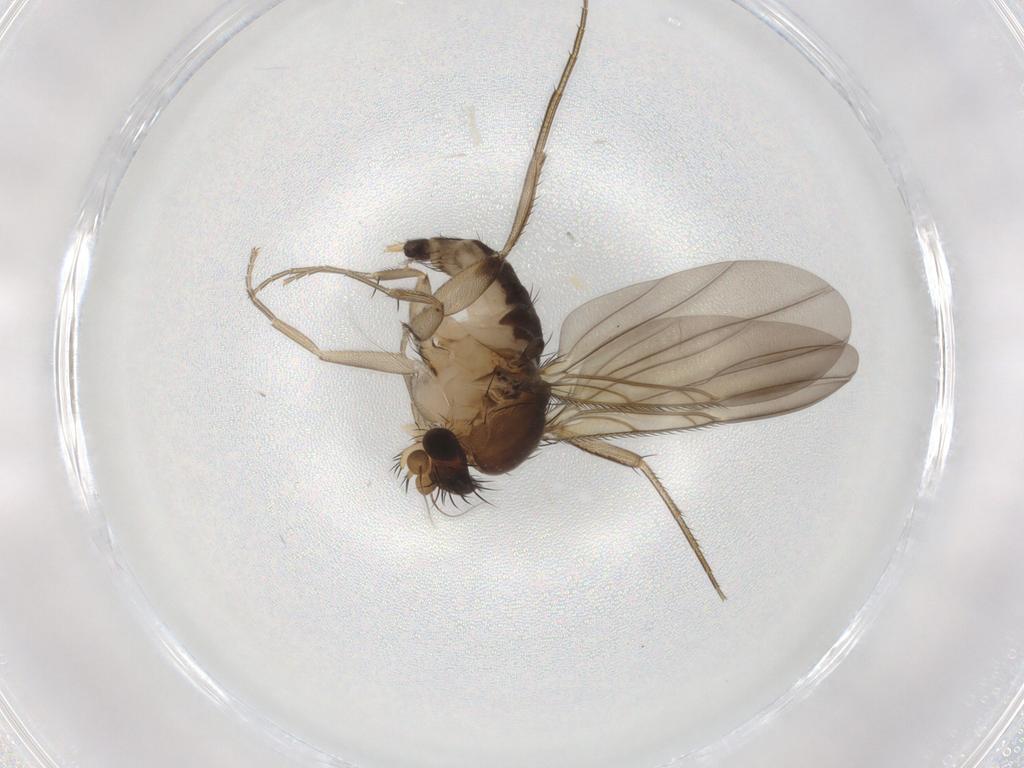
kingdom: Animalia
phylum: Arthropoda
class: Insecta
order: Diptera
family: Phoridae
